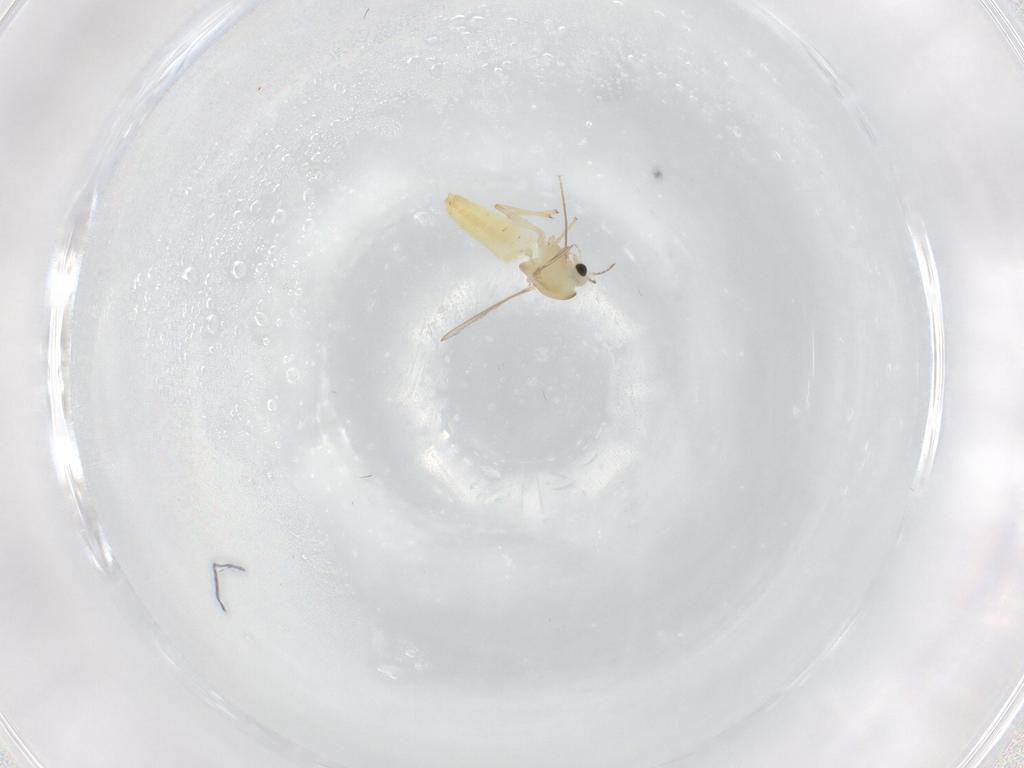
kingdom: Animalia
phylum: Arthropoda
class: Insecta
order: Diptera
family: Chironomidae
